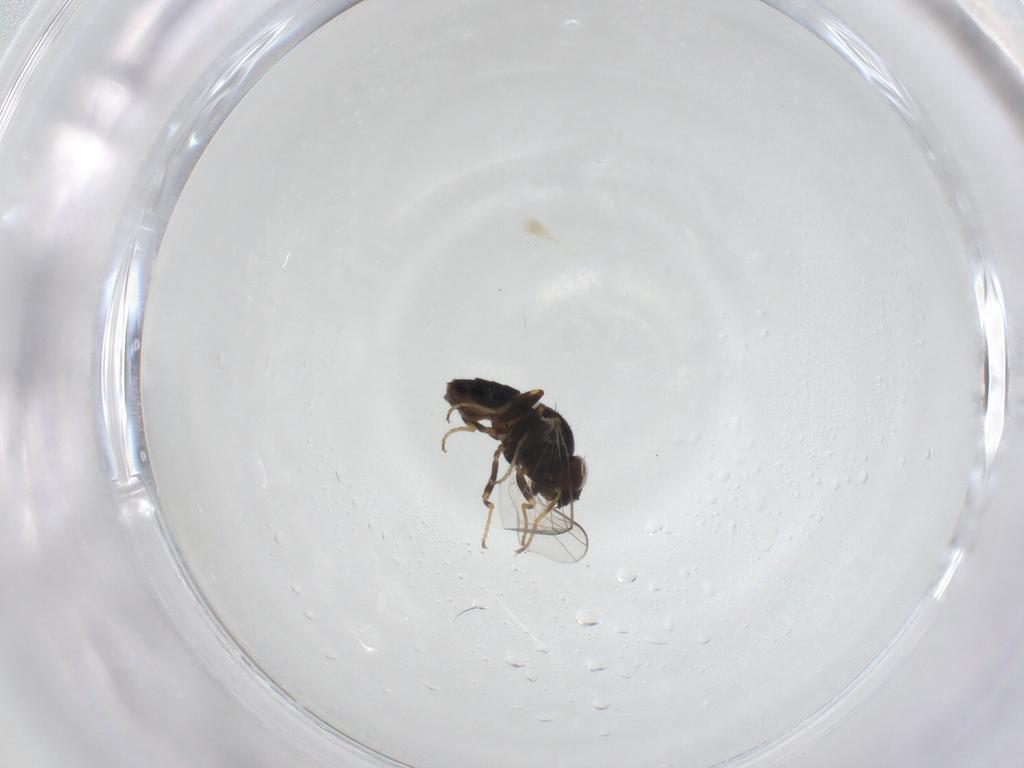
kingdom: Animalia
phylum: Arthropoda
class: Insecta
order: Diptera
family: Chloropidae
